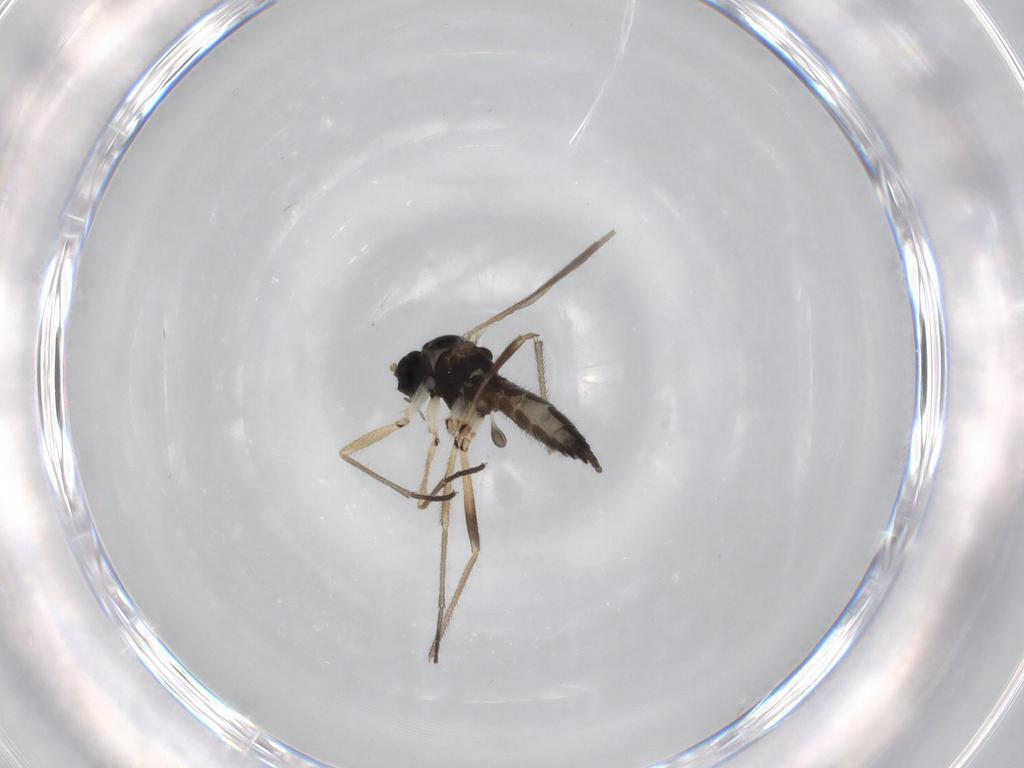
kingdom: Animalia
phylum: Arthropoda
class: Insecta
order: Diptera
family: Sciaridae
